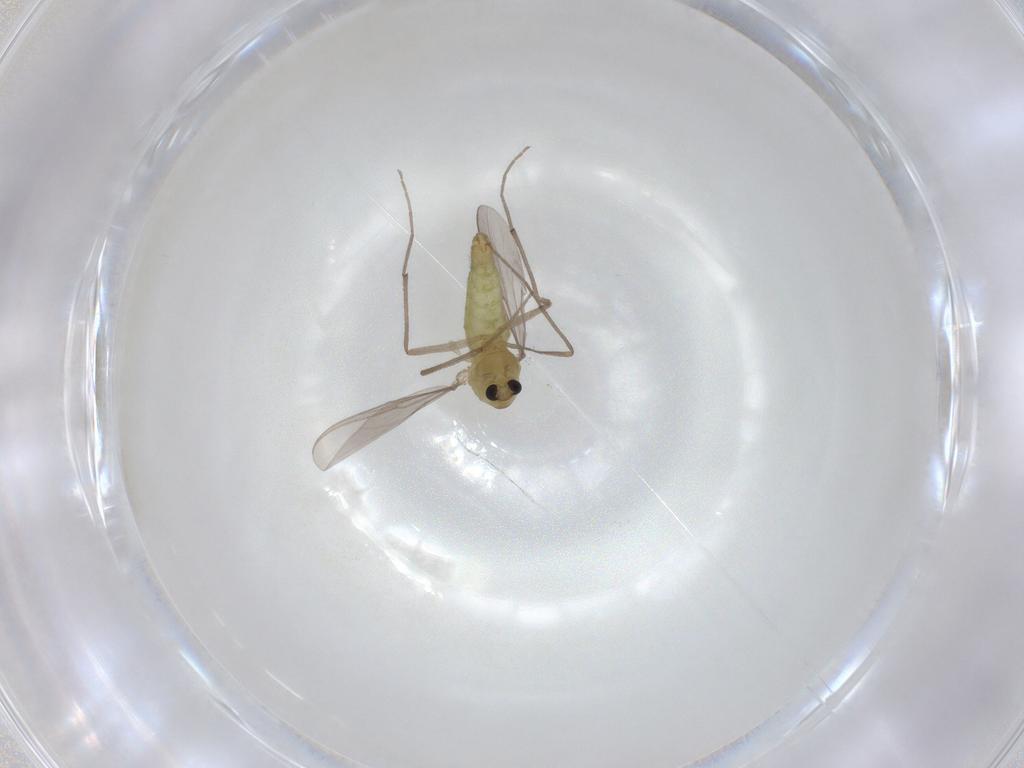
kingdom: Animalia
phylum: Arthropoda
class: Insecta
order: Diptera
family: Chironomidae
